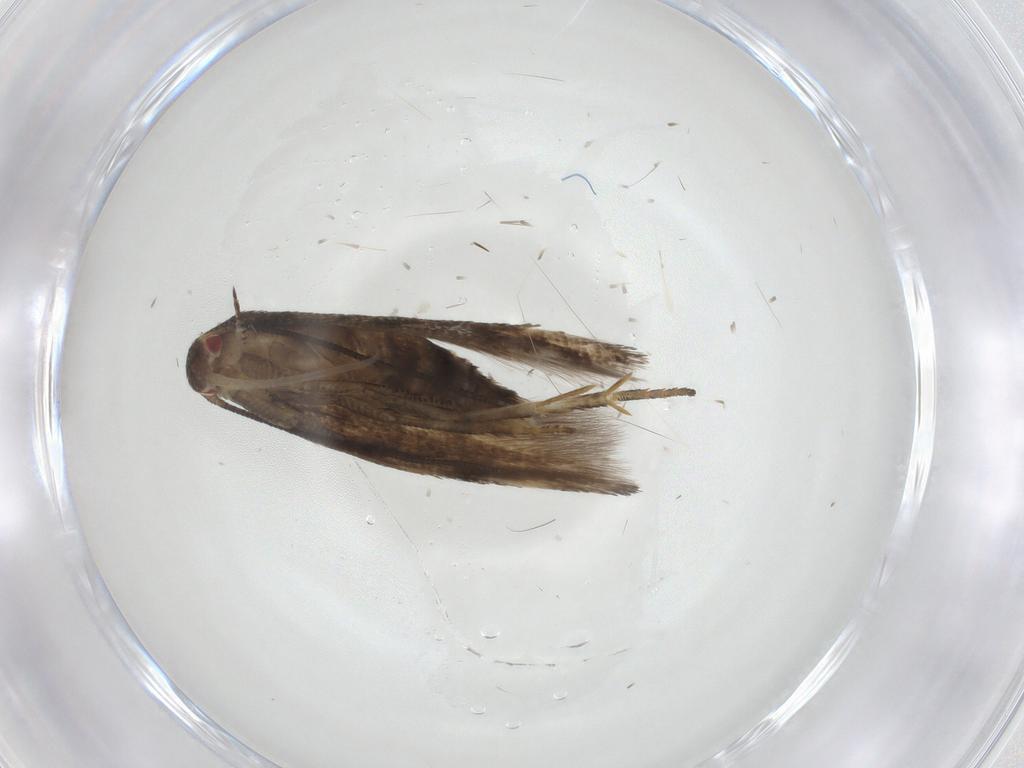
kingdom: Animalia
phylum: Arthropoda
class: Insecta
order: Lepidoptera
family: Momphidae
